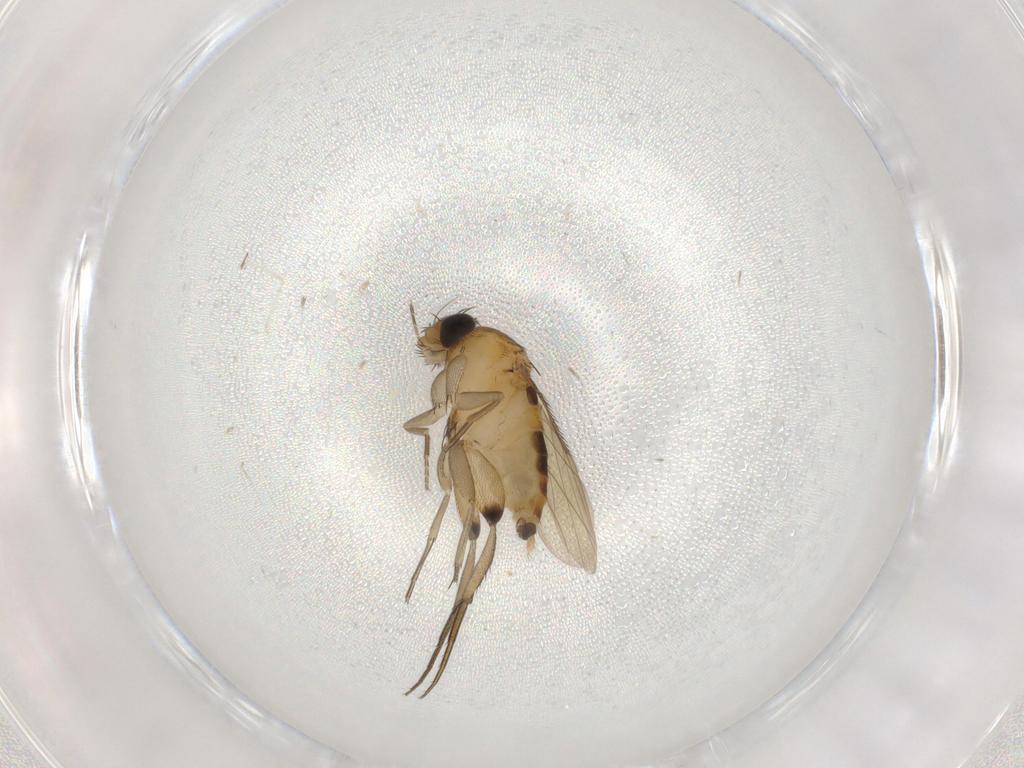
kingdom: Animalia
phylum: Arthropoda
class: Insecta
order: Diptera
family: Phoridae
